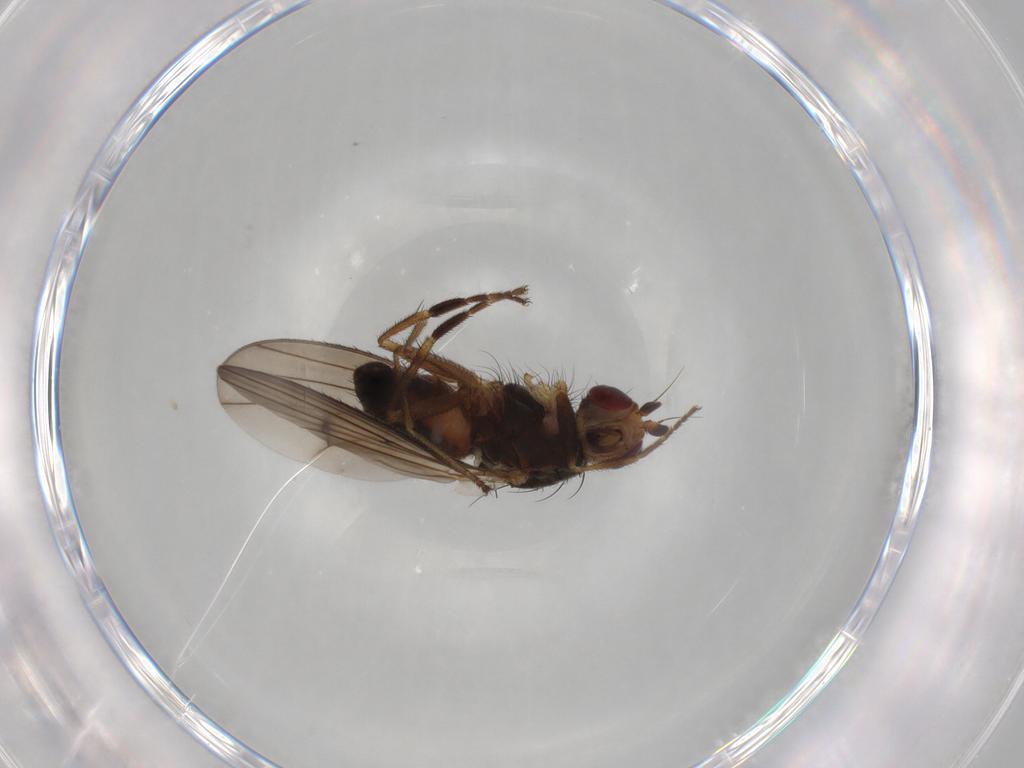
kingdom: Animalia
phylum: Arthropoda
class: Insecta
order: Diptera
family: Heleomyzidae
